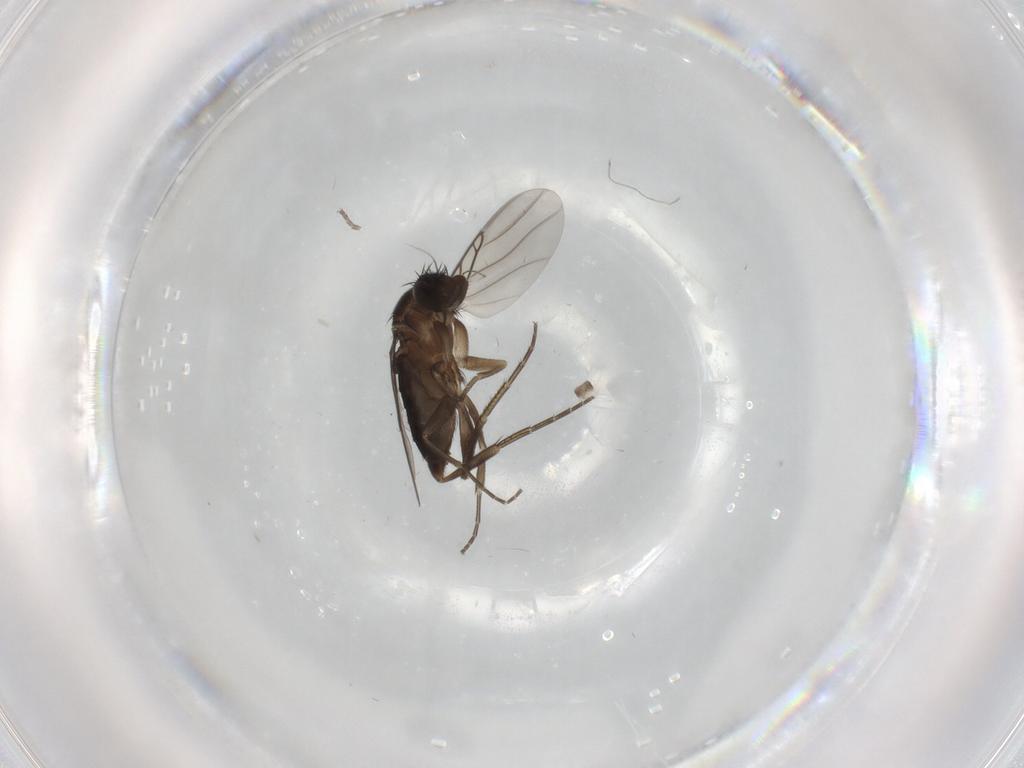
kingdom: Animalia
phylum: Arthropoda
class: Insecta
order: Diptera
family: Phoridae
